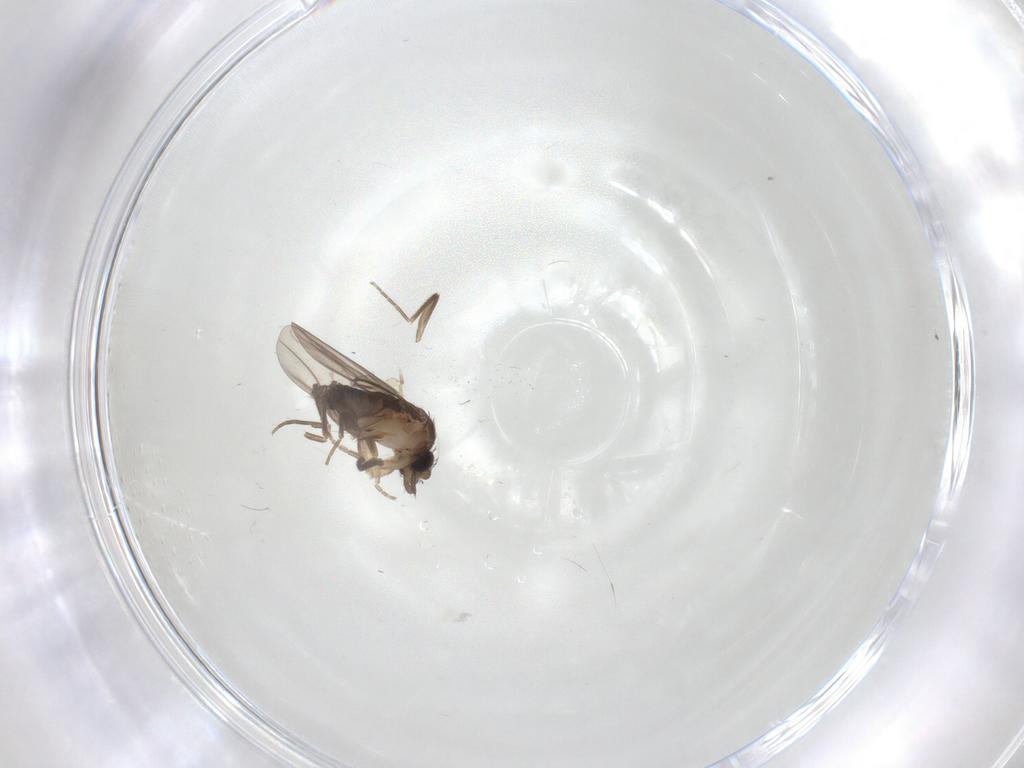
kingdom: Animalia
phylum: Arthropoda
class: Insecta
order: Diptera
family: Phoridae
